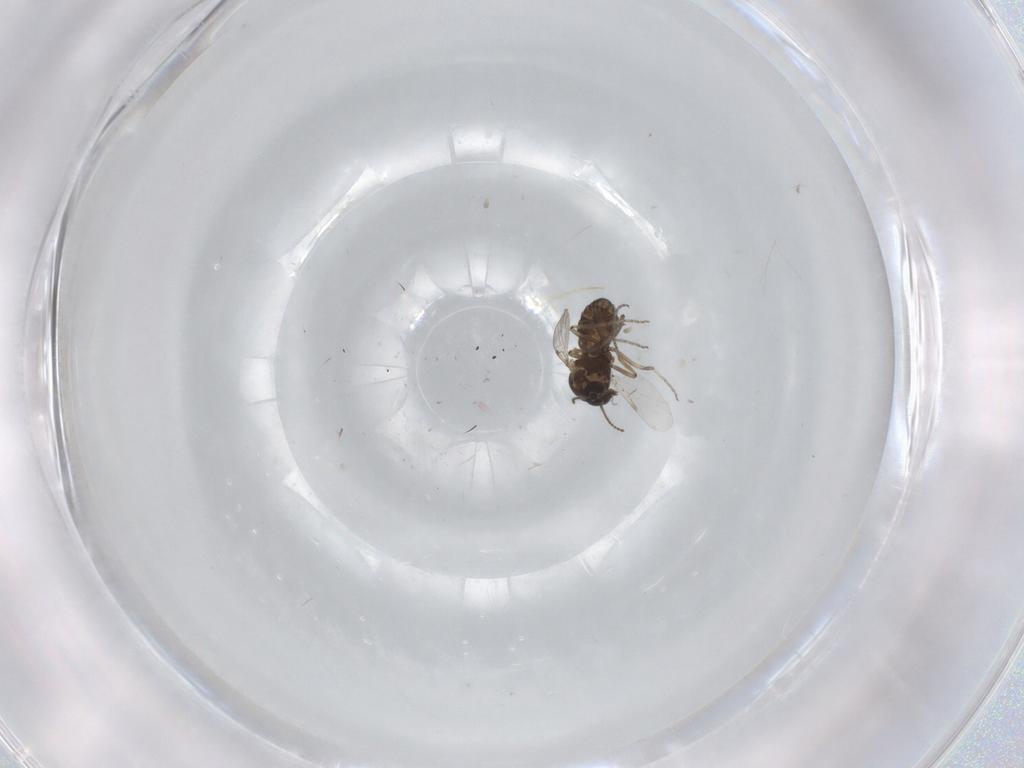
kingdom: Animalia
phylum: Arthropoda
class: Insecta
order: Diptera
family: Ceratopogonidae
